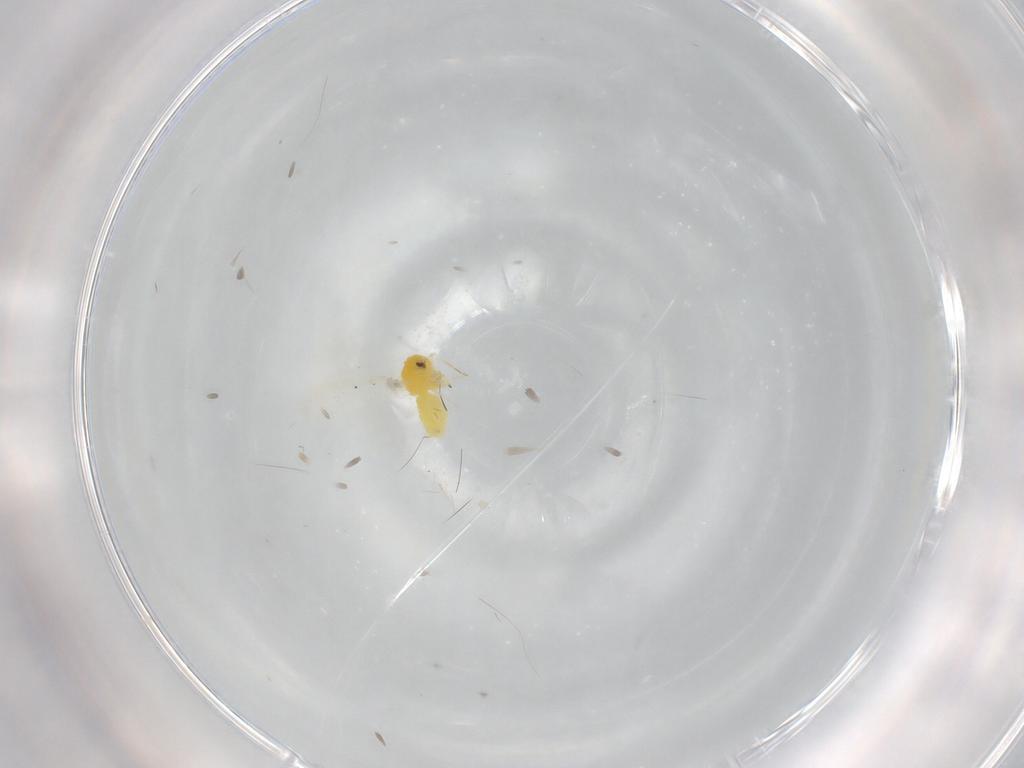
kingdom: Animalia
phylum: Arthropoda
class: Insecta
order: Hemiptera
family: Aleyrodidae
